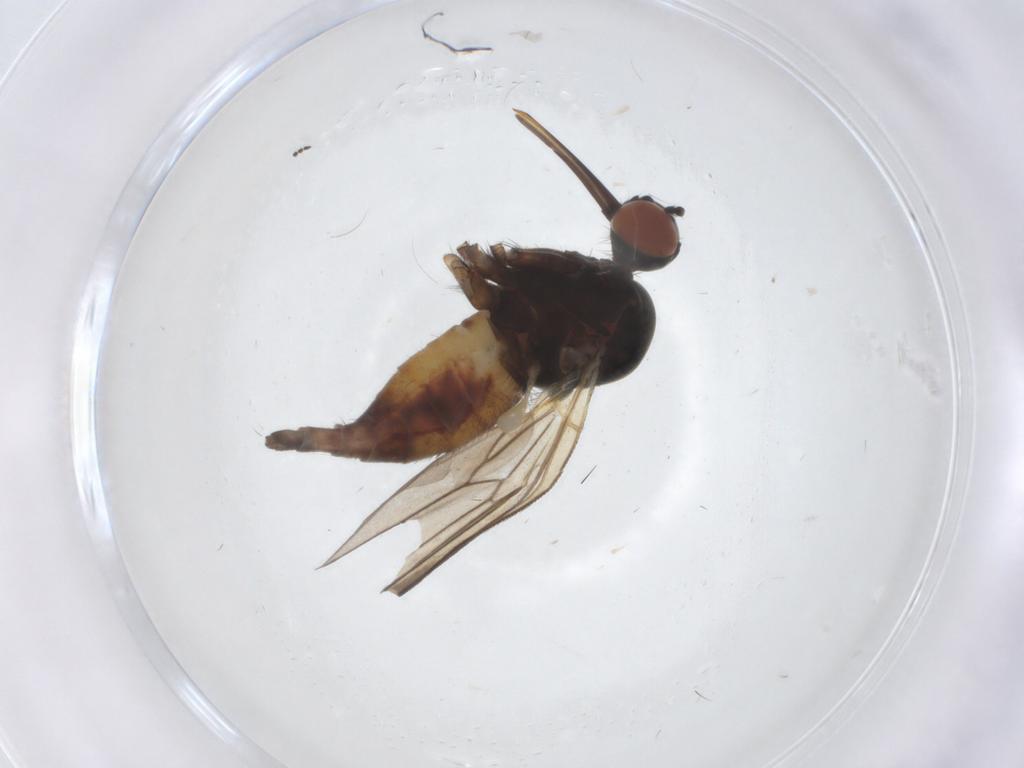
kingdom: Animalia
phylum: Arthropoda
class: Insecta
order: Diptera
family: Empididae
